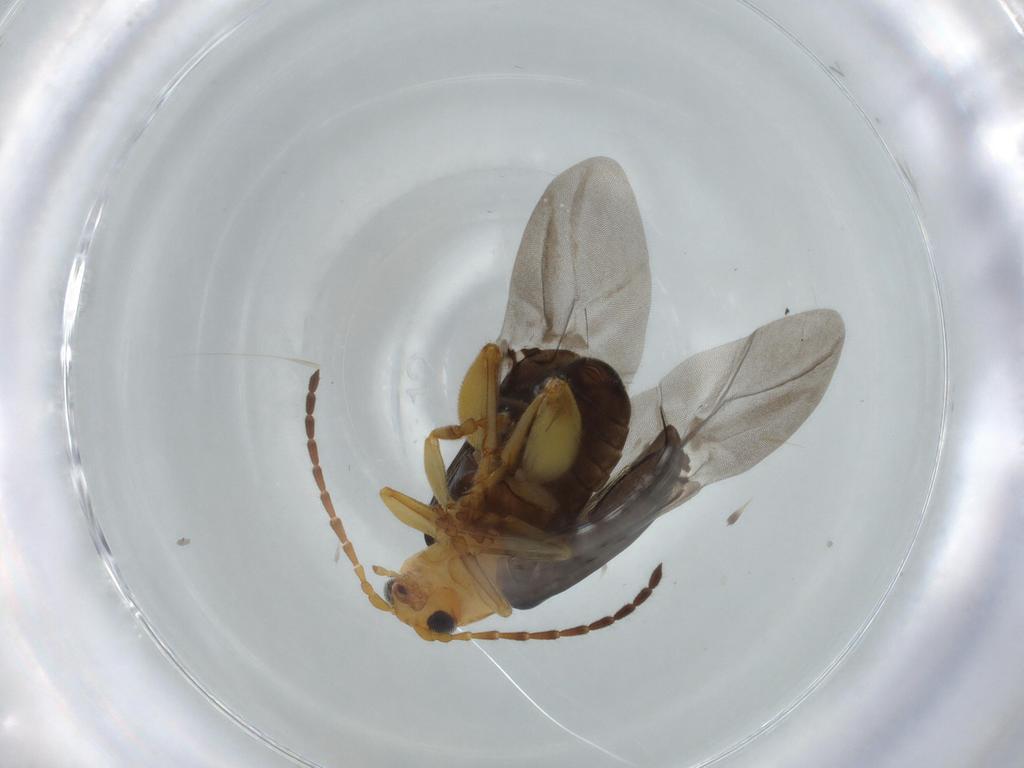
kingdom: Animalia
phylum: Arthropoda
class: Insecta
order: Coleoptera
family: Chrysomelidae
